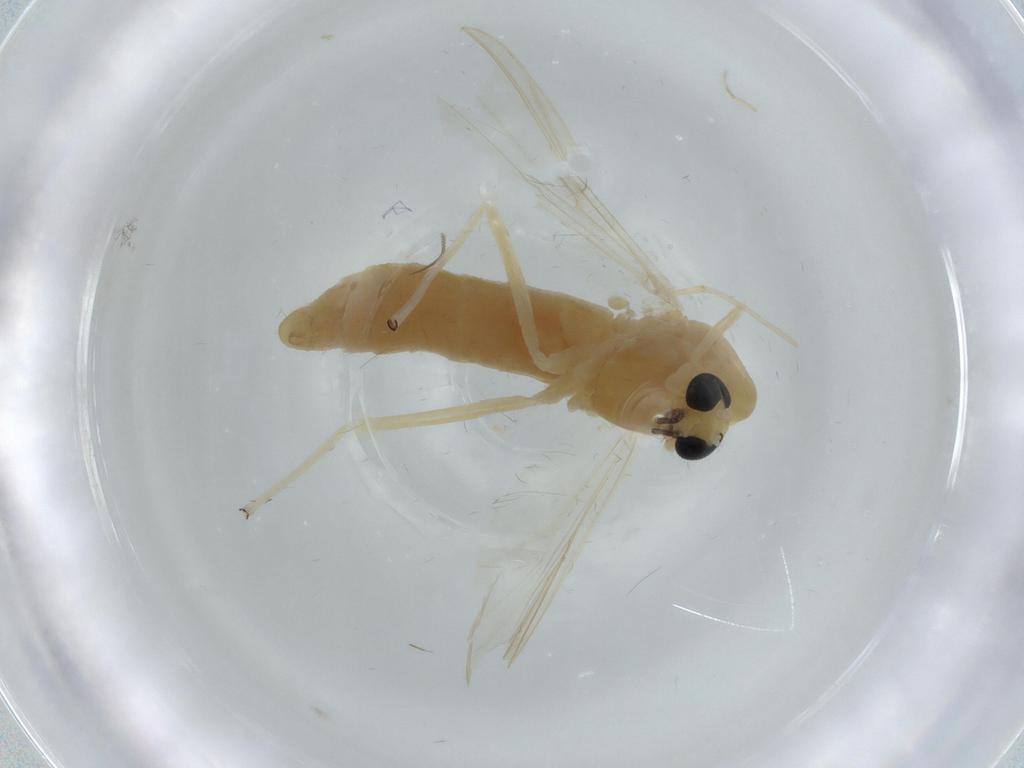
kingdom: Animalia
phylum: Arthropoda
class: Insecta
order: Diptera
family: Chironomidae
